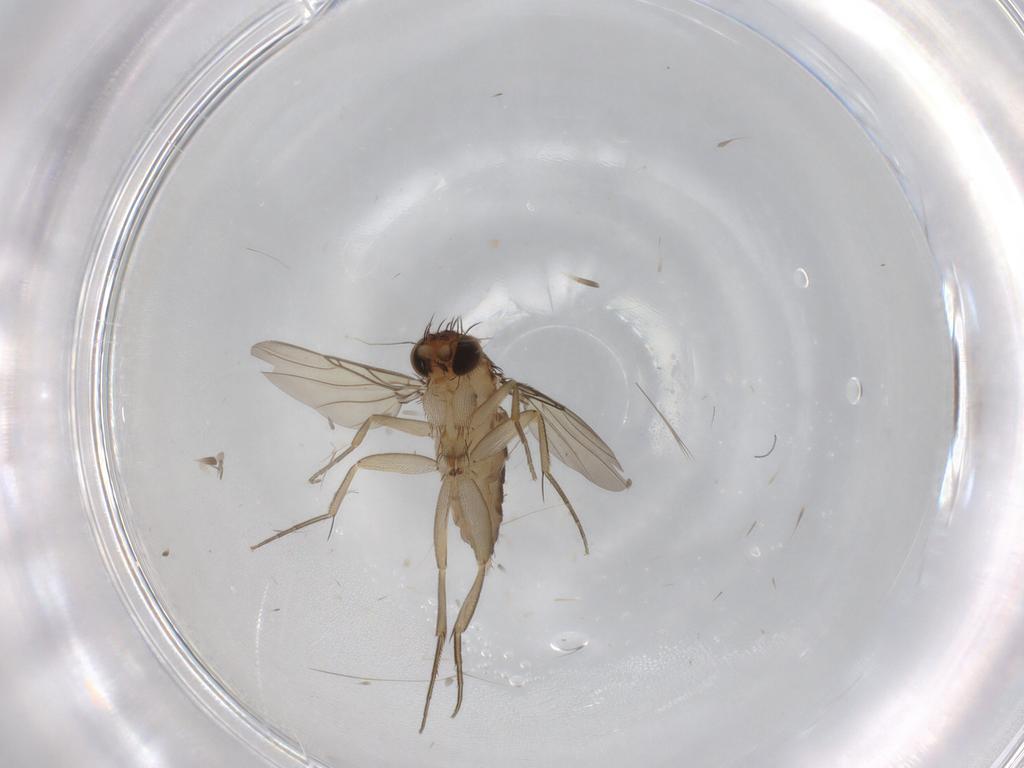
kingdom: Animalia
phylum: Arthropoda
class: Insecta
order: Diptera
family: Phoridae
